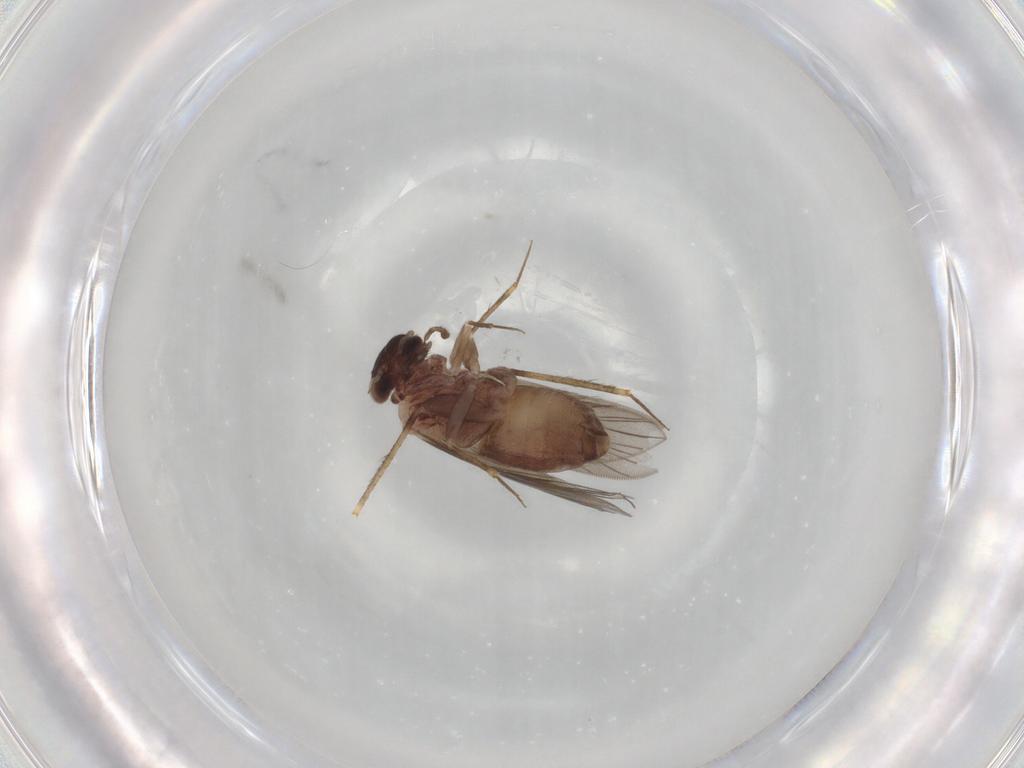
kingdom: Animalia
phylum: Arthropoda
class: Insecta
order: Psocodea
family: Lepidopsocidae
